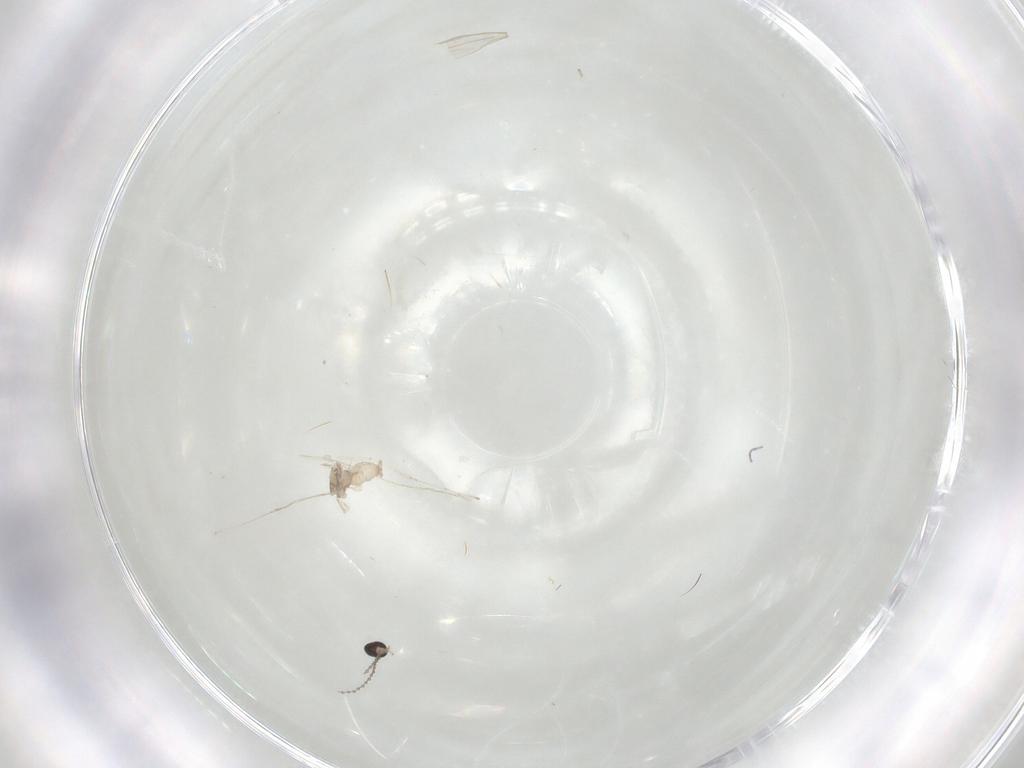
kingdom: Animalia
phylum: Arthropoda
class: Insecta
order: Diptera
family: Cecidomyiidae
